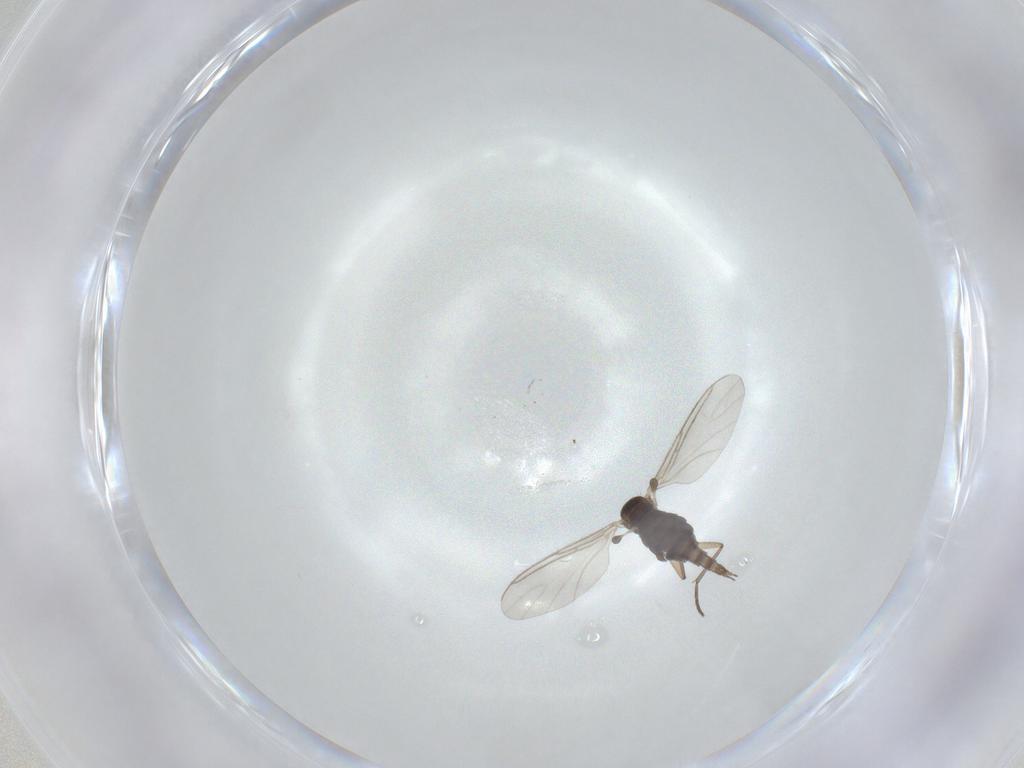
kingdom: Animalia
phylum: Arthropoda
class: Insecta
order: Diptera
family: Sciaridae
